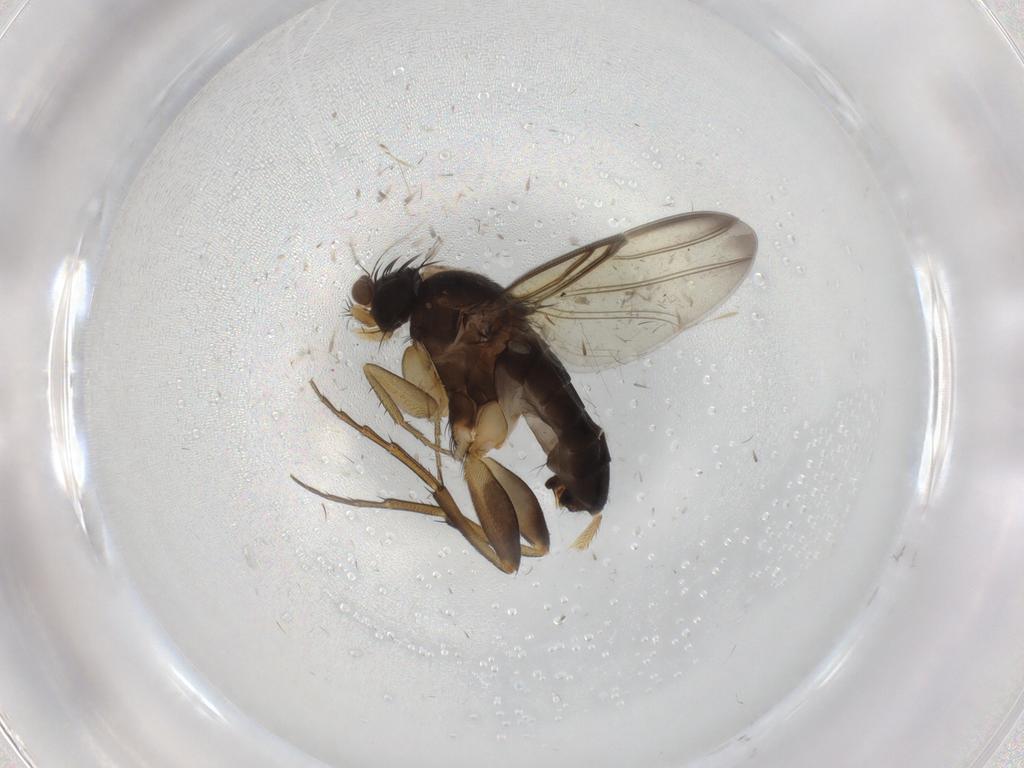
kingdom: Animalia
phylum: Arthropoda
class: Insecta
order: Diptera
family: Phoridae
